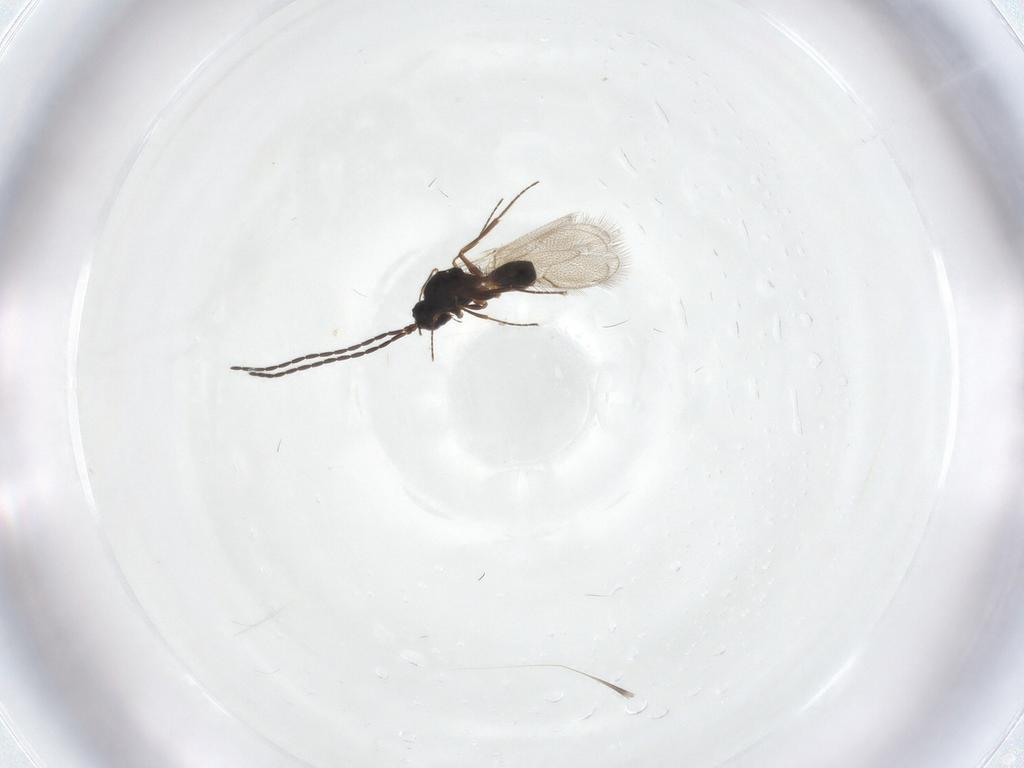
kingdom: Animalia
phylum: Arthropoda
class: Insecta
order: Hymenoptera
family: Figitidae
